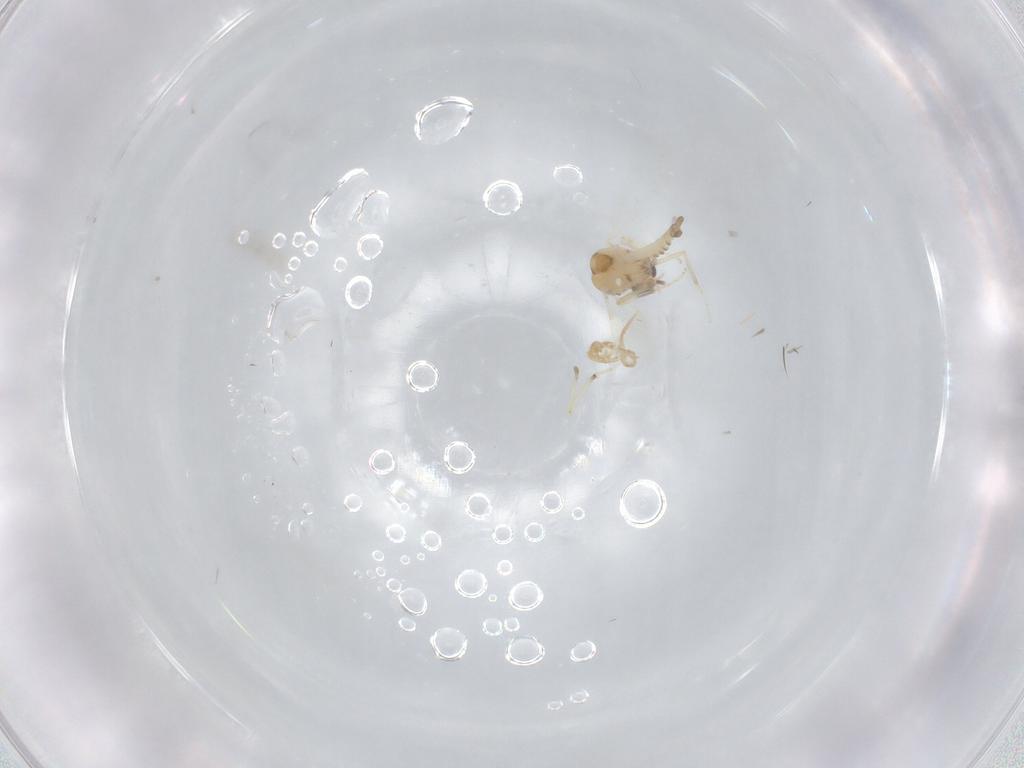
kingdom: Animalia
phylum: Arthropoda
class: Insecta
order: Diptera
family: Ceratopogonidae
